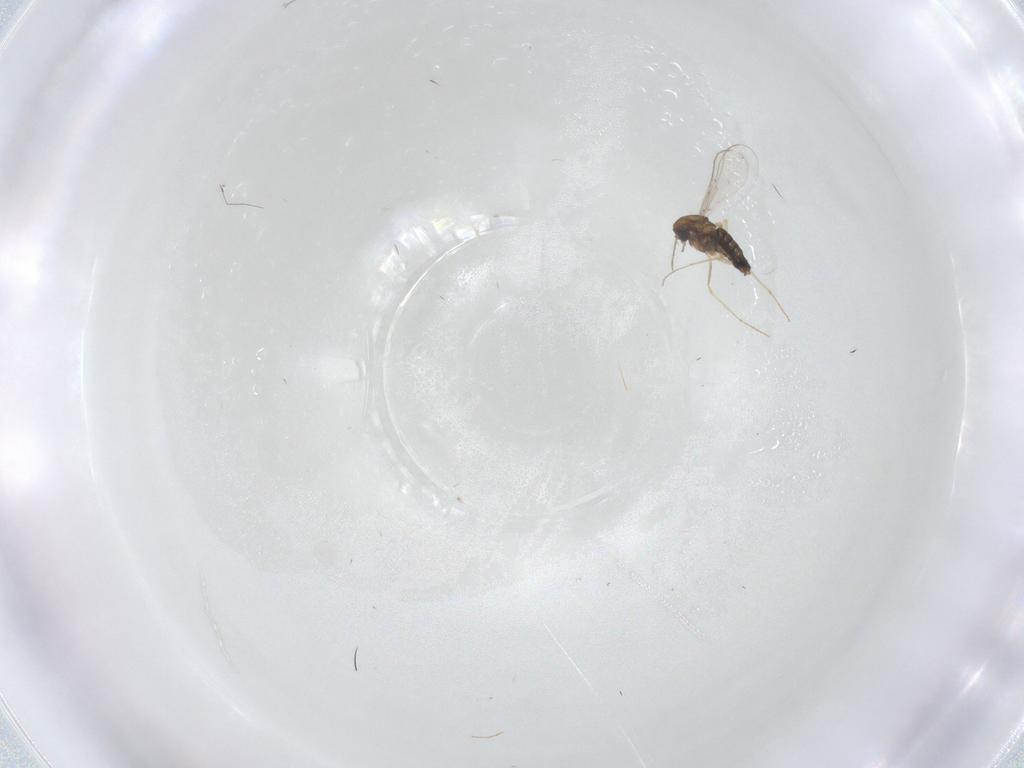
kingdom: Animalia
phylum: Arthropoda
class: Insecta
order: Diptera
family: Chironomidae
